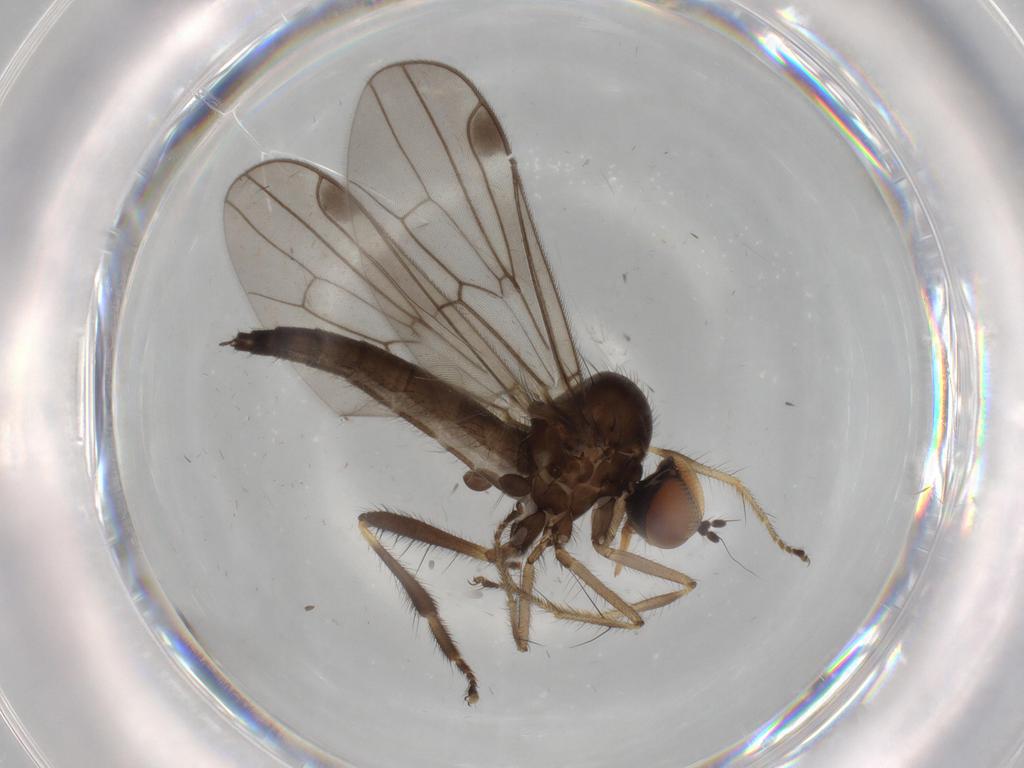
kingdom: Animalia
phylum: Arthropoda
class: Insecta
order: Diptera
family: Hybotidae
